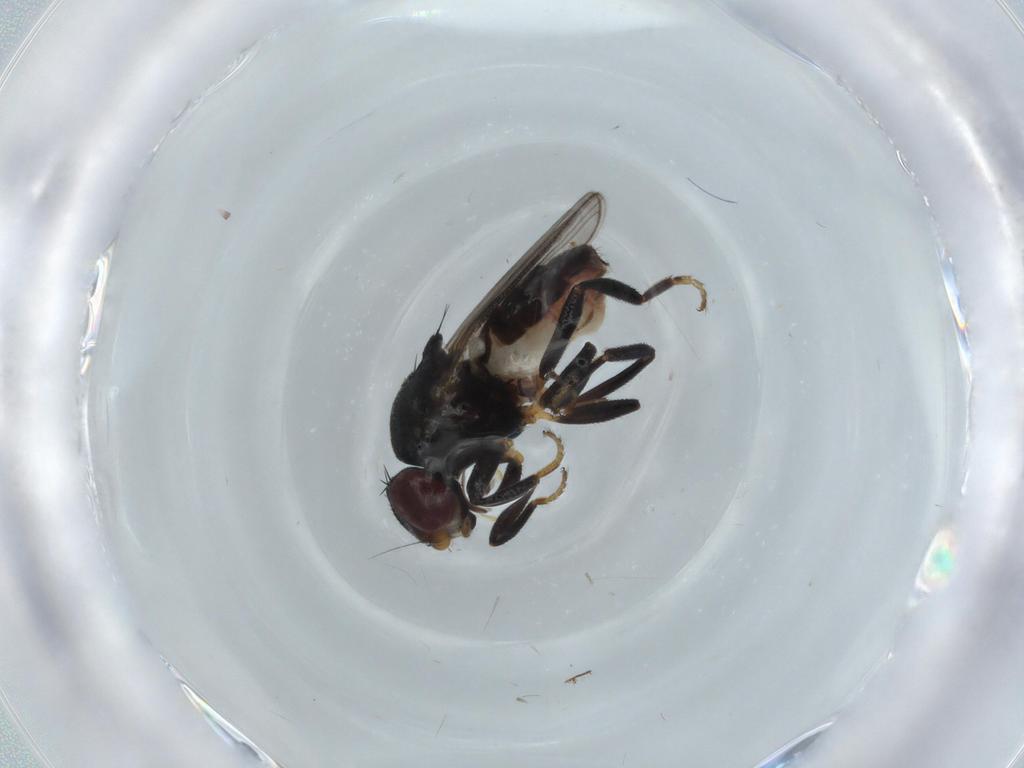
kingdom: Animalia
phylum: Arthropoda
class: Insecta
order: Diptera
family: Chloropidae
